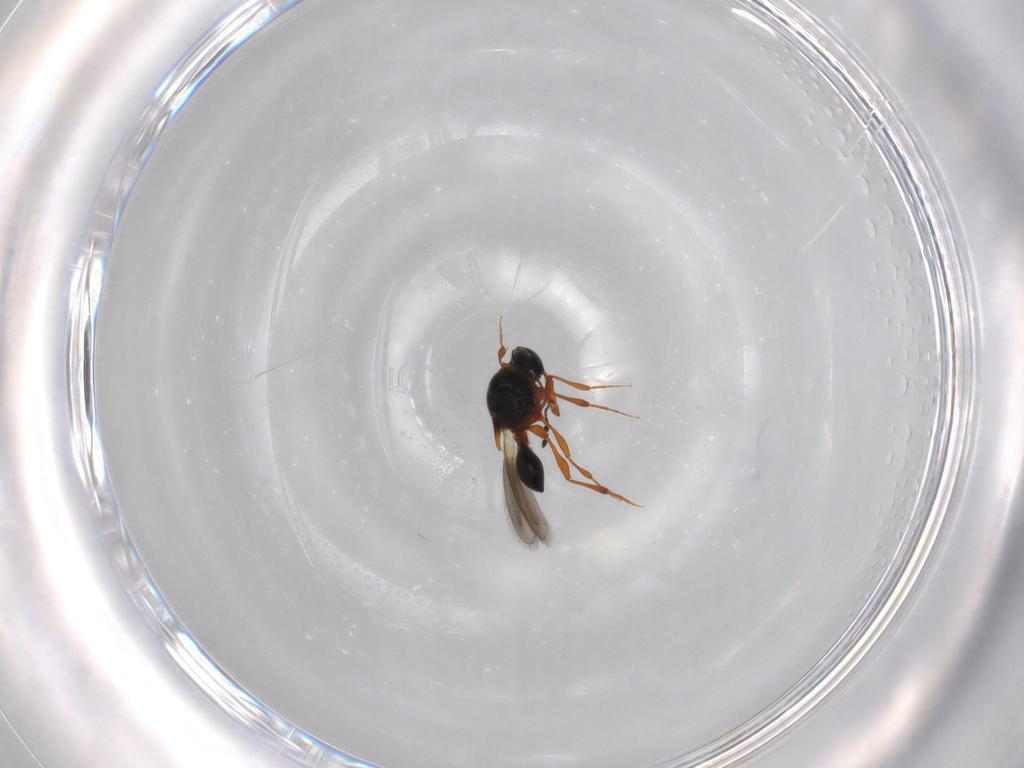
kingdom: Animalia
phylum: Arthropoda
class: Insecta
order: Hymenoptera
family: Platygastridae
